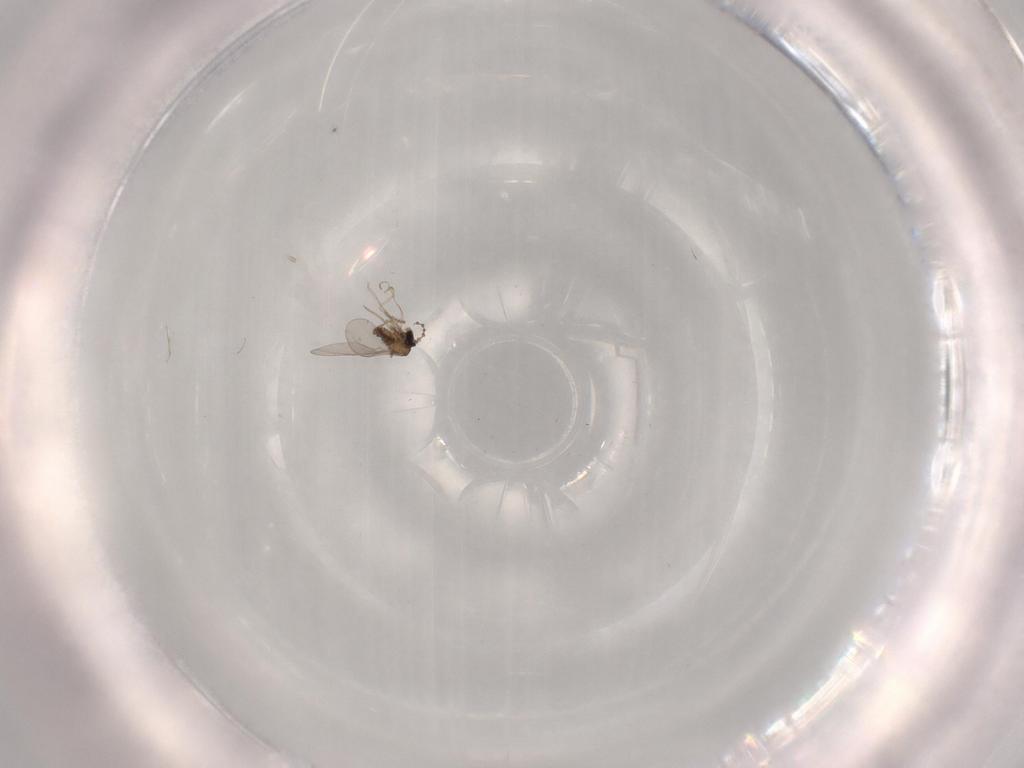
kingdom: Animalia
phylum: Arthropoda
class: Insecta
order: Diptera
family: Cecidomyiidae
